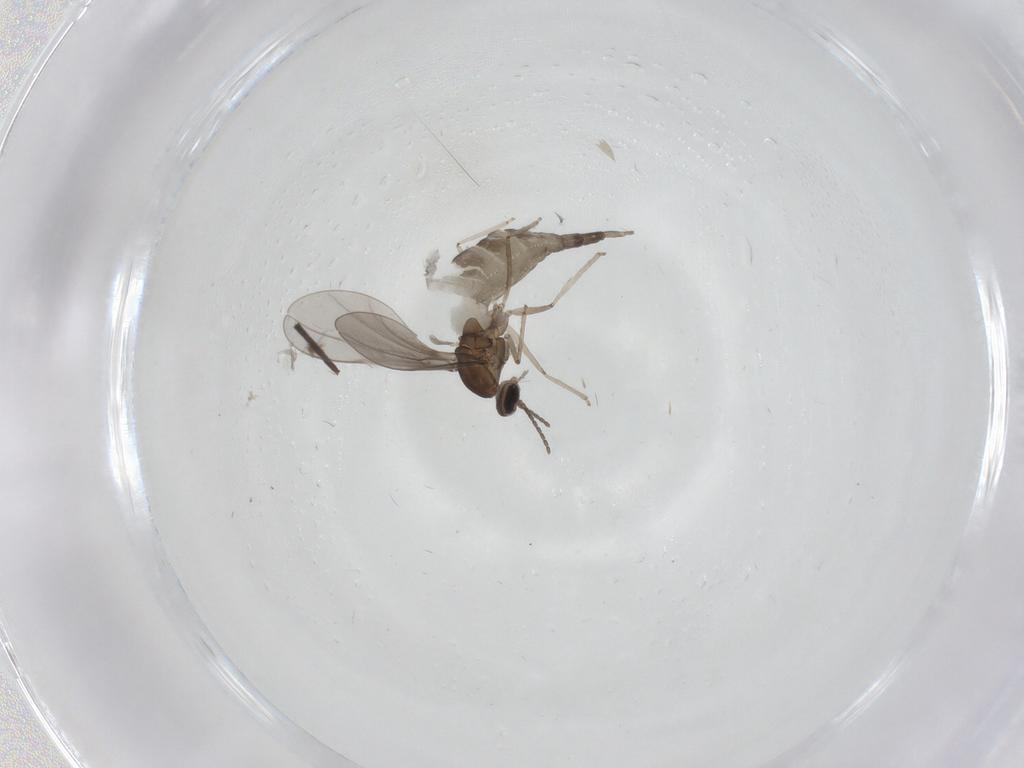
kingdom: Animalia
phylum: Arthropoda
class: Insecta
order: Diptera
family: Cecidomyiidae
